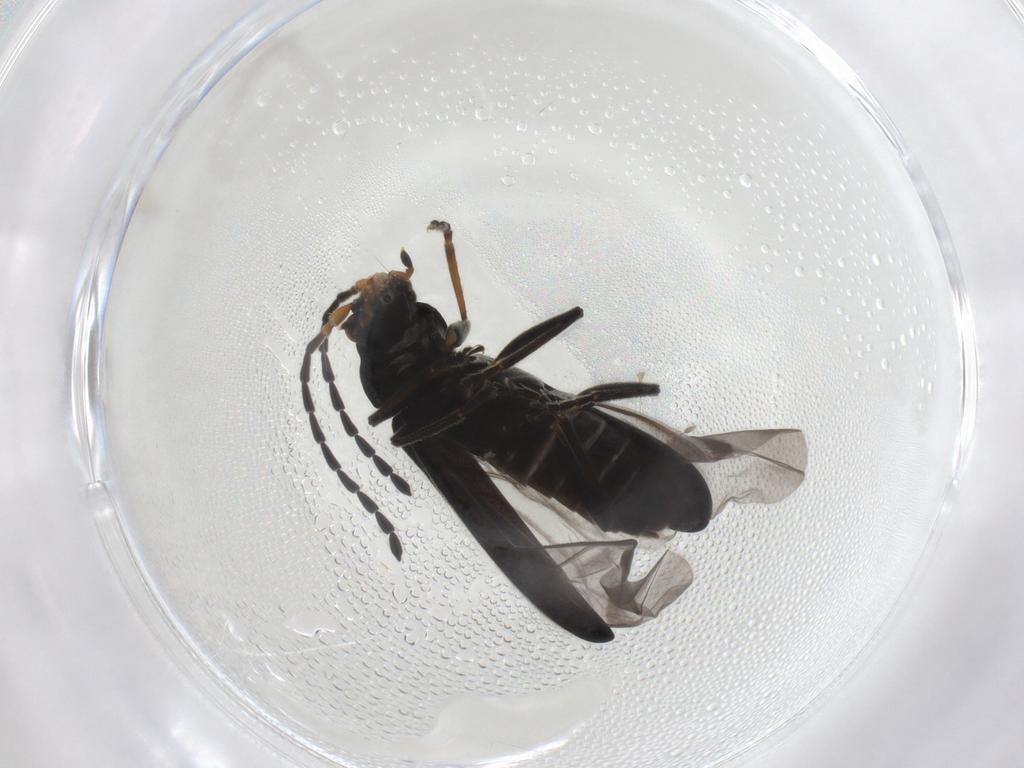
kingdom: Animalia
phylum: Arthropoda
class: Insecta
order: Coleoptera
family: Cantharidae
